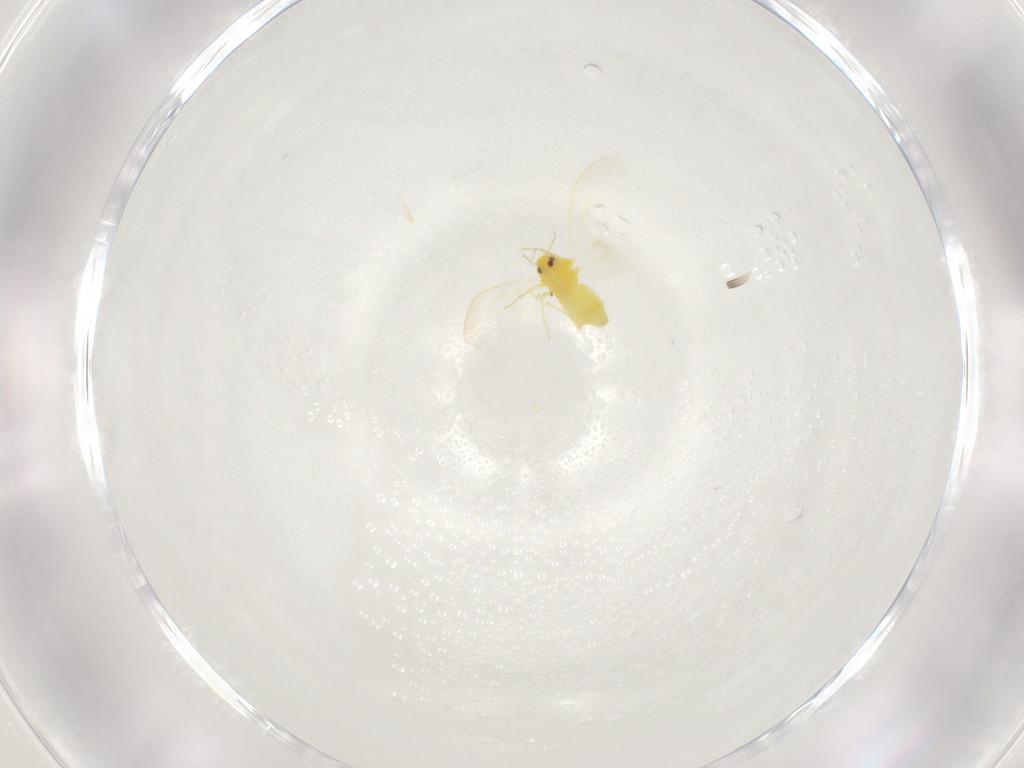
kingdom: Animalia
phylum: Arthropoda
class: Insecta
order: Hemiptera
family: Aleyrodidae
